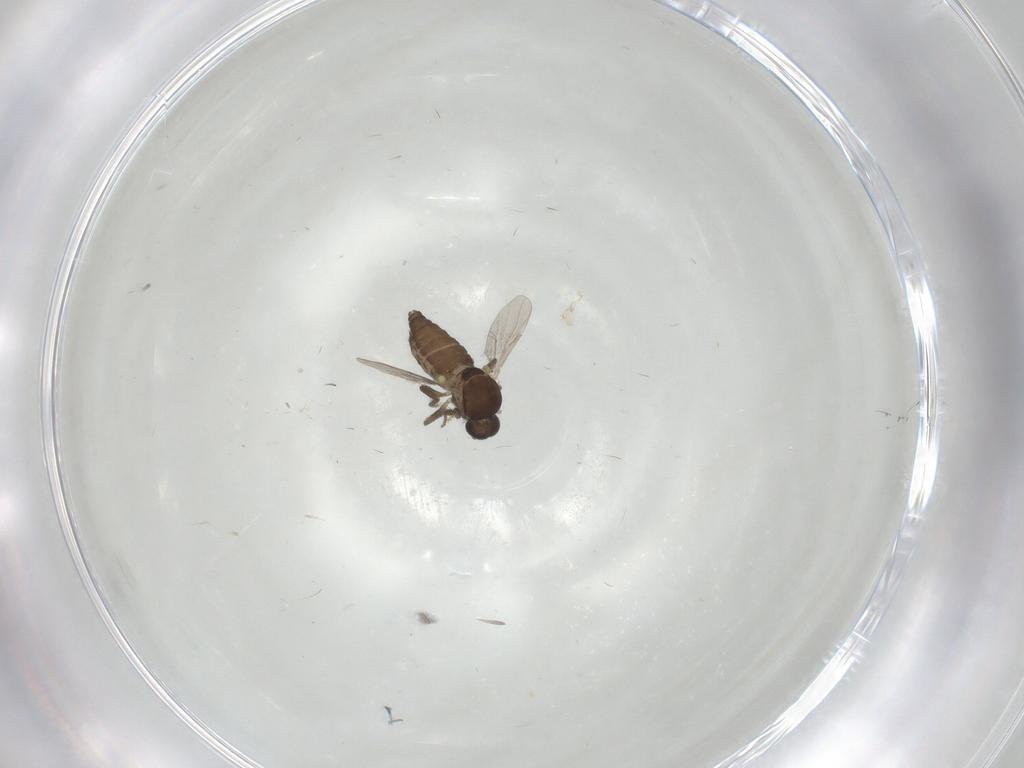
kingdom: Animalia
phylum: Arthropoda
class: Insecta
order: Diptera
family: Ceratopogonidae
